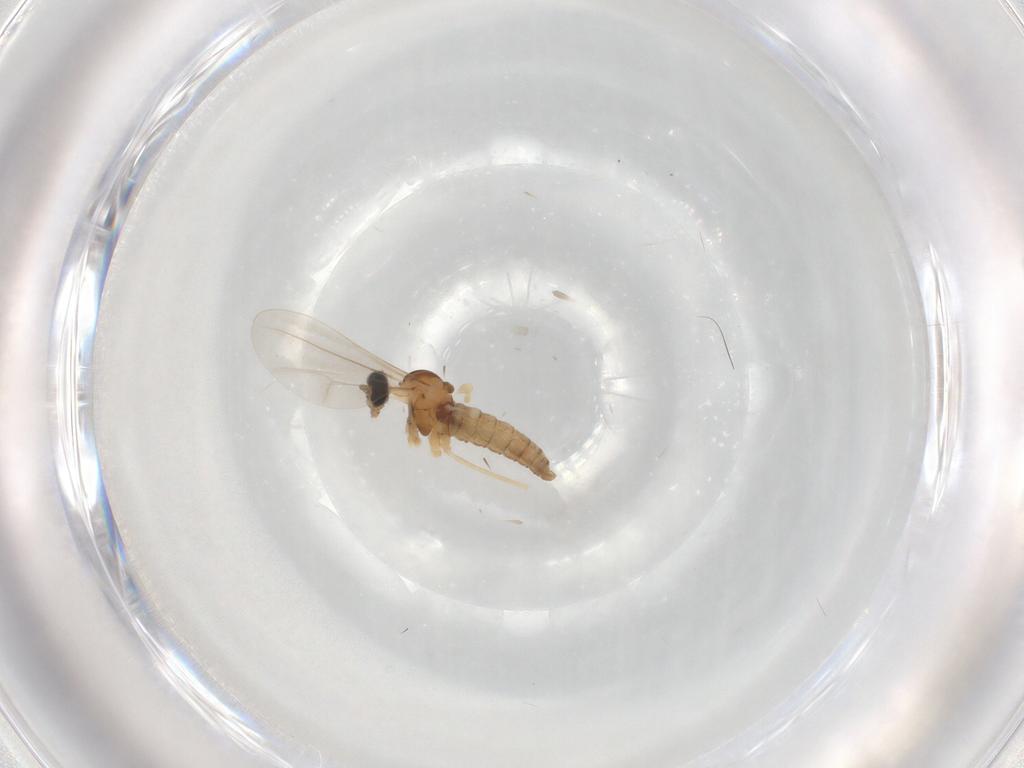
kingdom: Animalia
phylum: Arthropoda
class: Insecta
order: Diptera
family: Cecidomyiidae
